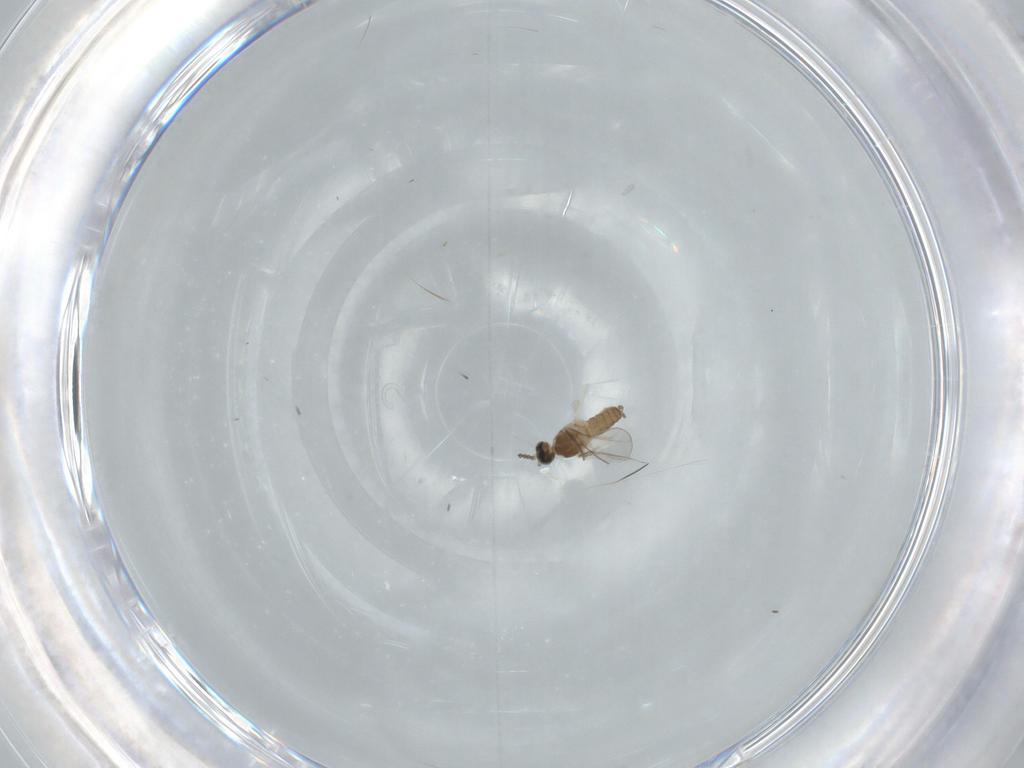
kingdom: Animalia
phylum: Arthropoda
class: Insecta
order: Diptera
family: Cecidomyiidae
